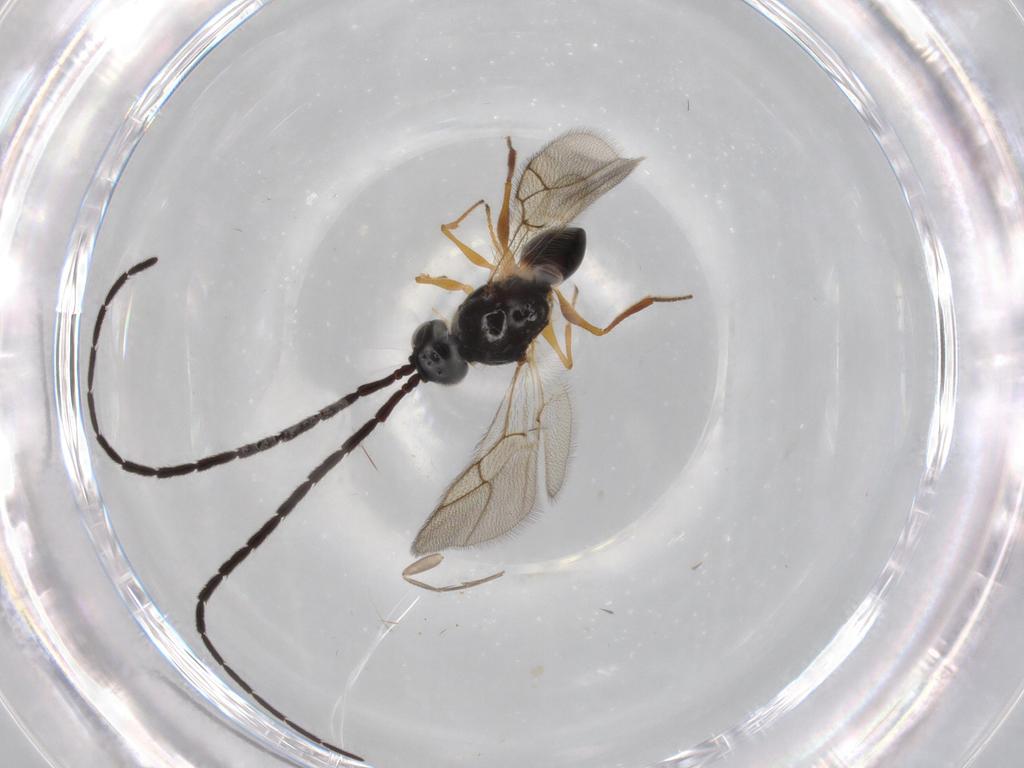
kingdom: Animalia
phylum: Arthropoda
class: Insecta
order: Hymenoptera
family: Figitidae
